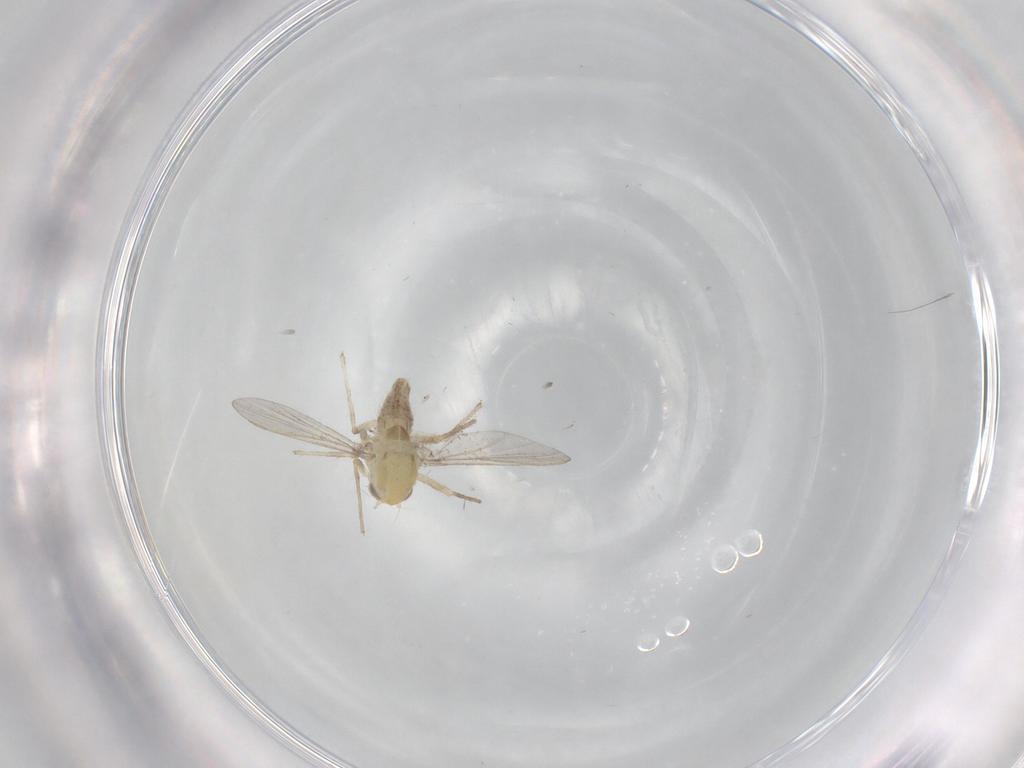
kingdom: Animalia
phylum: Arthropoda
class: Insecta
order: Diptera
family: Chironomidae
